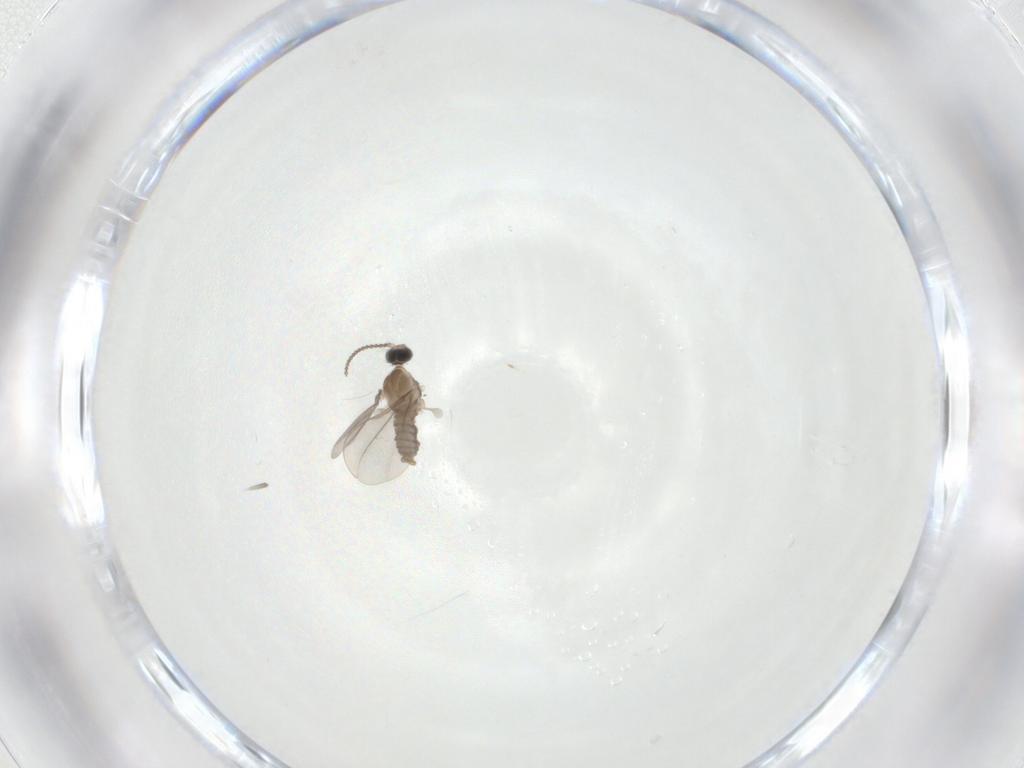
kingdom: Animalia
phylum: Arthropoda
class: Insecta
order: Diptera
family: Cecidomyiidae
